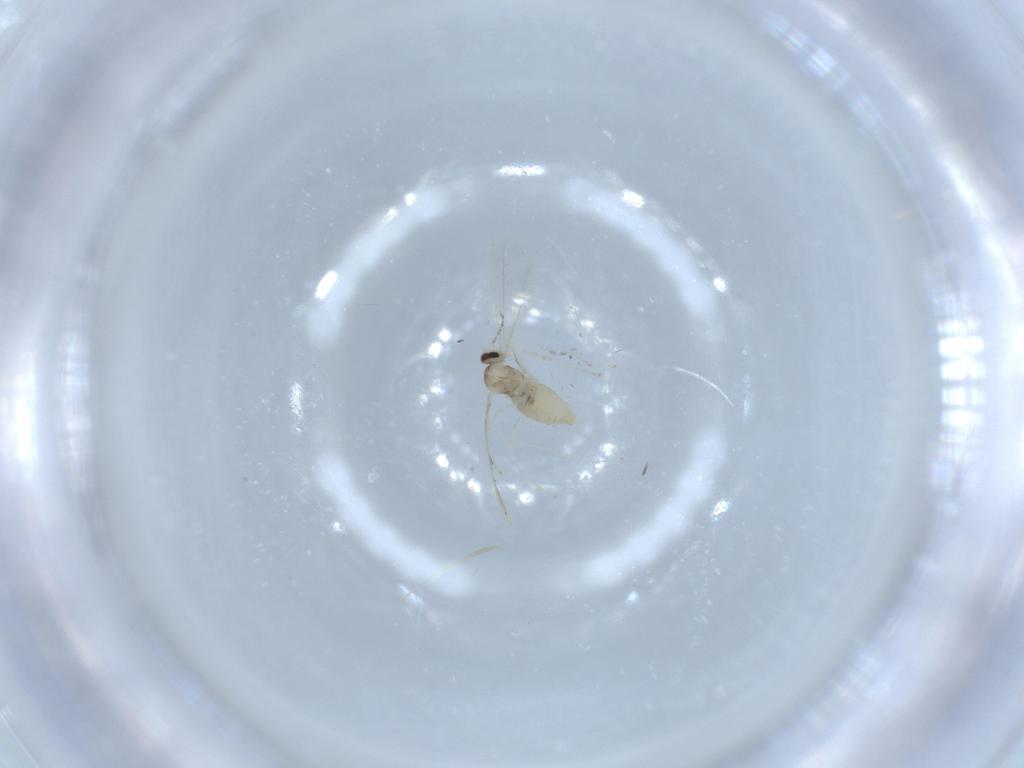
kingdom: Animalia
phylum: Arthropoda
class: Insecta
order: Diptera
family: Cecidomyiidae
